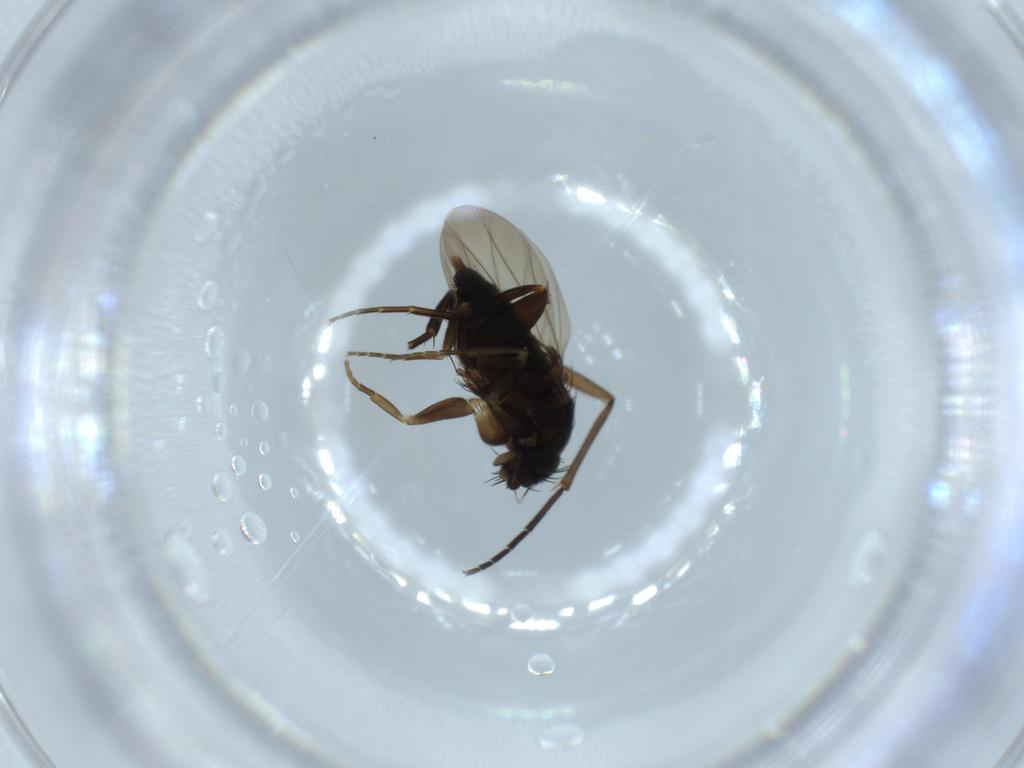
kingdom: Animalia
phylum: Arthropoda
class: Insecta
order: Diptera
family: Phoridae
